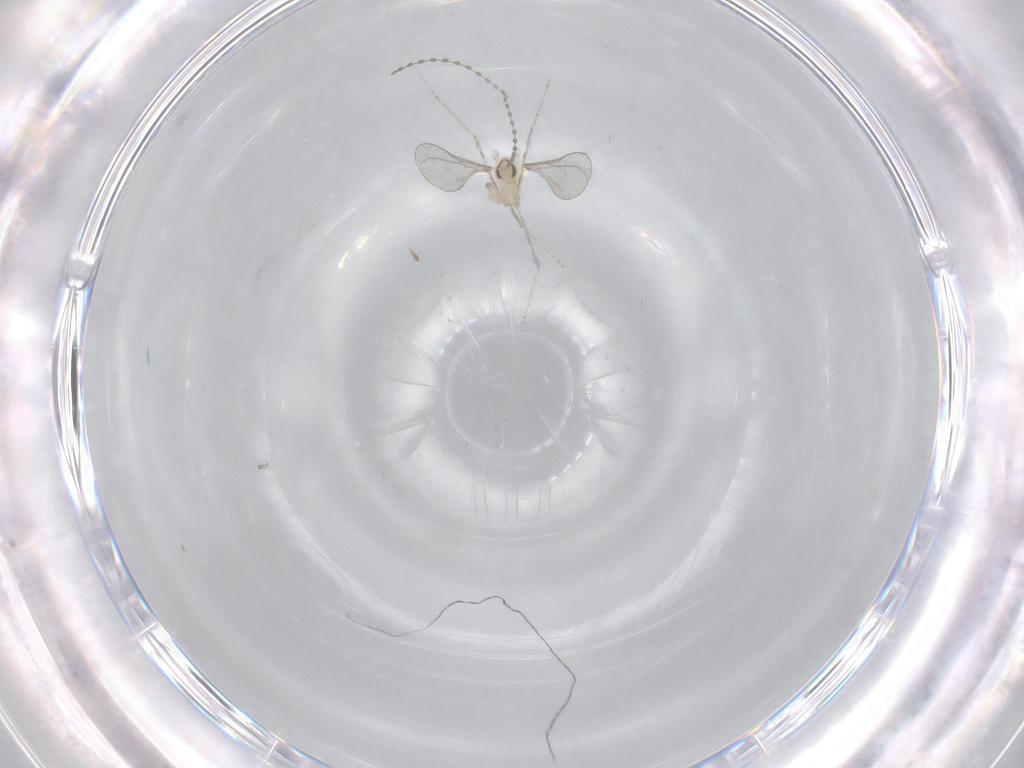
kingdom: Animalia
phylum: Arthropoda
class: Insecta
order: Diptera
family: Cecidomyiidae
